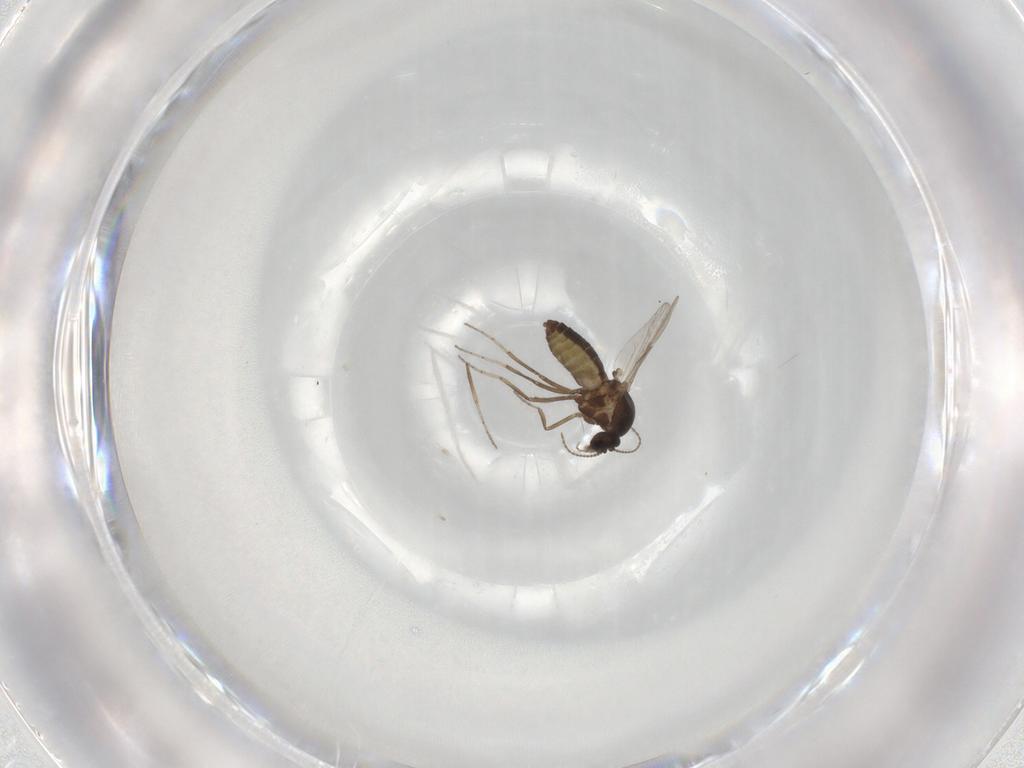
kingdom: Animalia
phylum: Arthropoda
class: Insecta
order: Diptera
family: Ceratopogonidae
